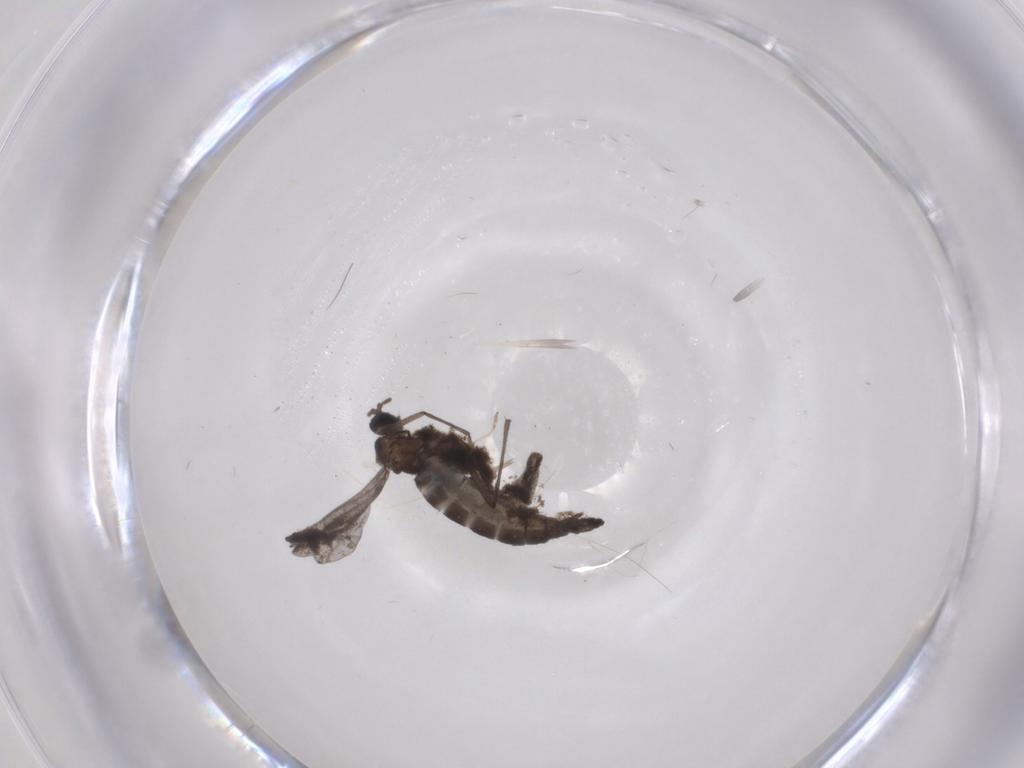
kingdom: Animalia
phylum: Arthropoda
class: Insecta
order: Diptera
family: Sciaridae
